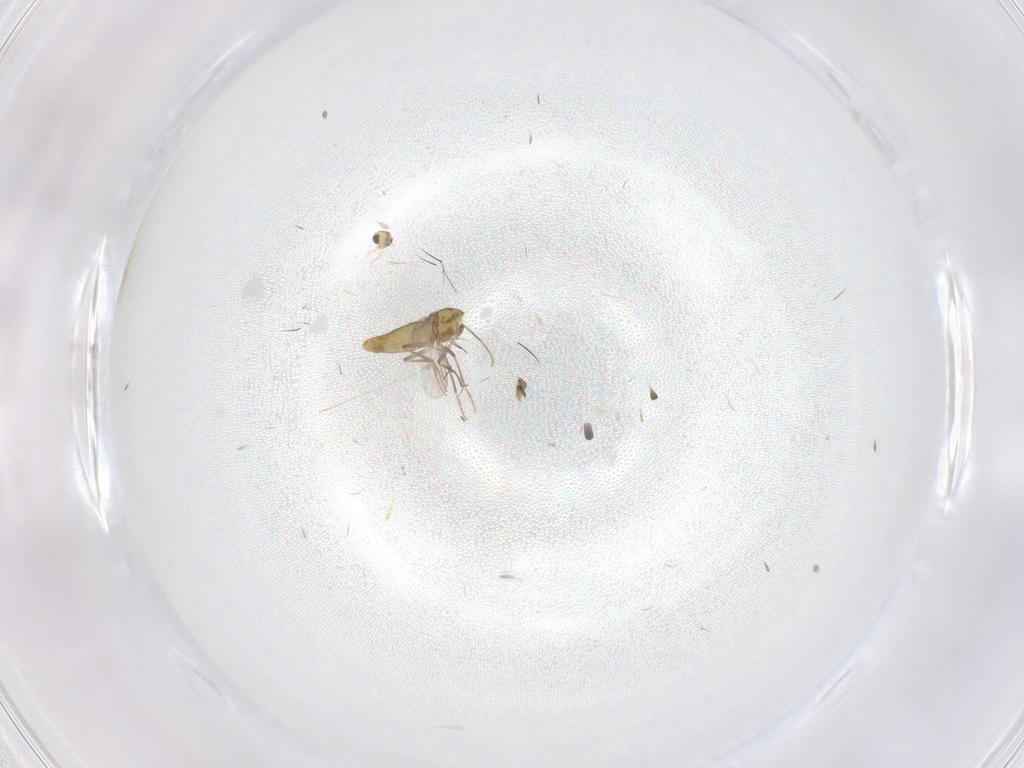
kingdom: Animalia
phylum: Arthropoda
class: Insecta
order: Diptera
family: Chironomidae
